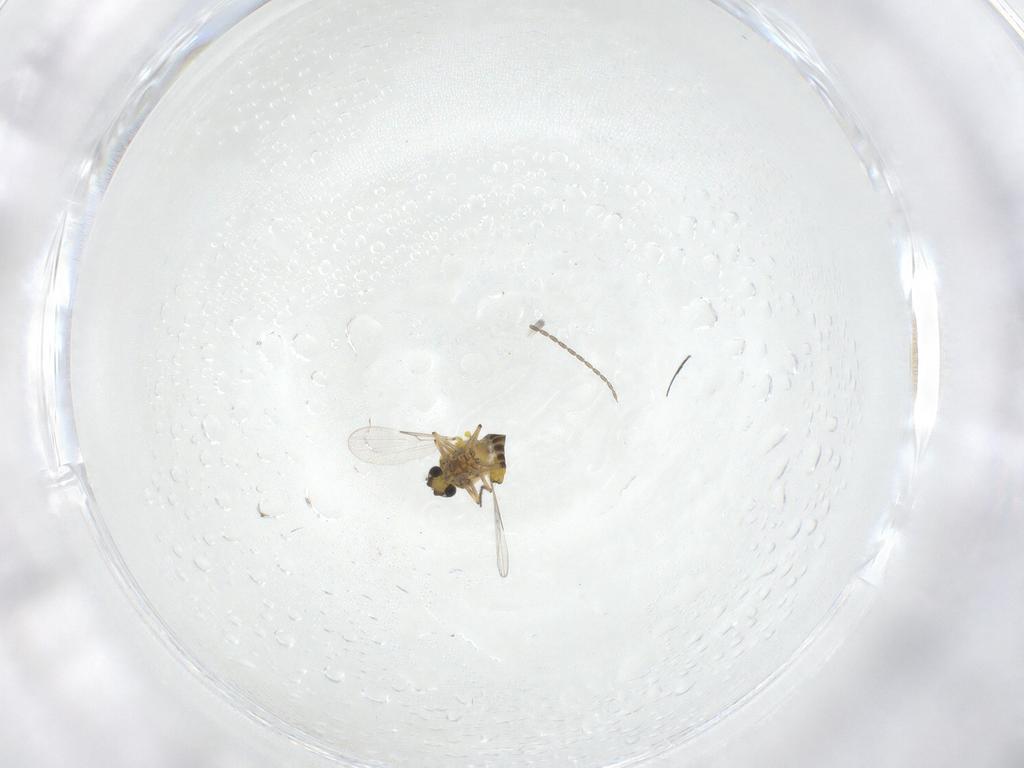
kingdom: Animalia
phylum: Arthropoda
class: Insecta
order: Diptera
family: Ceratopogonidae
